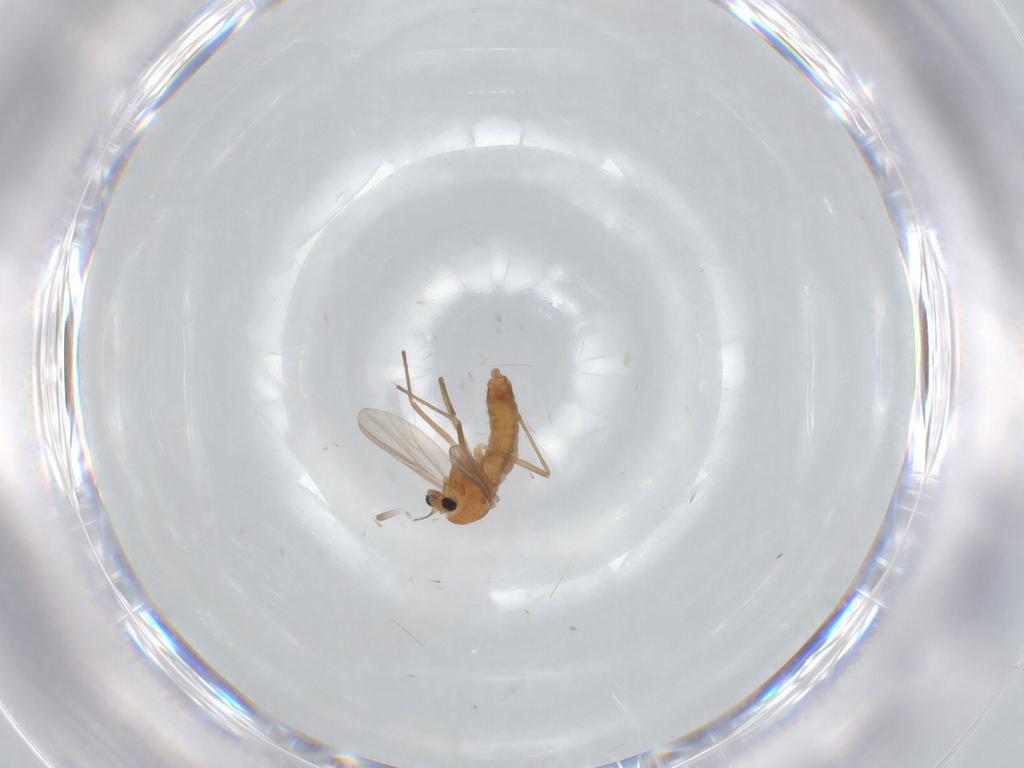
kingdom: Animalia
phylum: Arthropoda
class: Insecta
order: Diptera
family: Chironomidae
